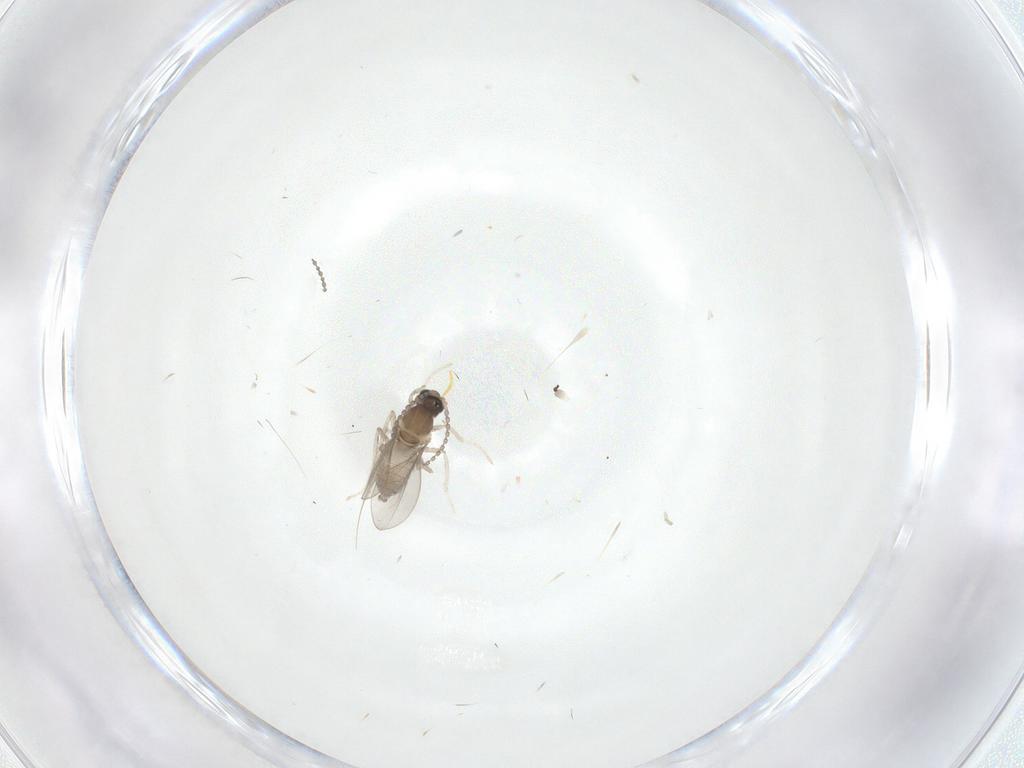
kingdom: Animalia
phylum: Arthropoda
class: Insecta
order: Diptera
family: Cecidomyiidae
